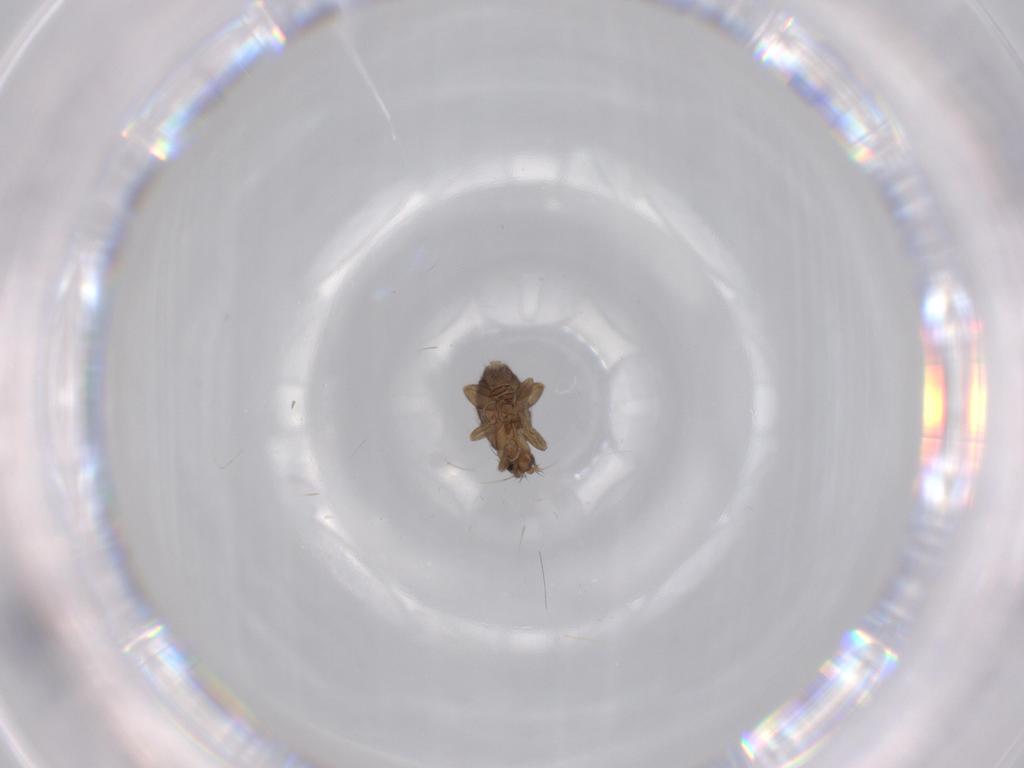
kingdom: Animalia
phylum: Arthropoda
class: Insecta
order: Diptera
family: Phoridae
